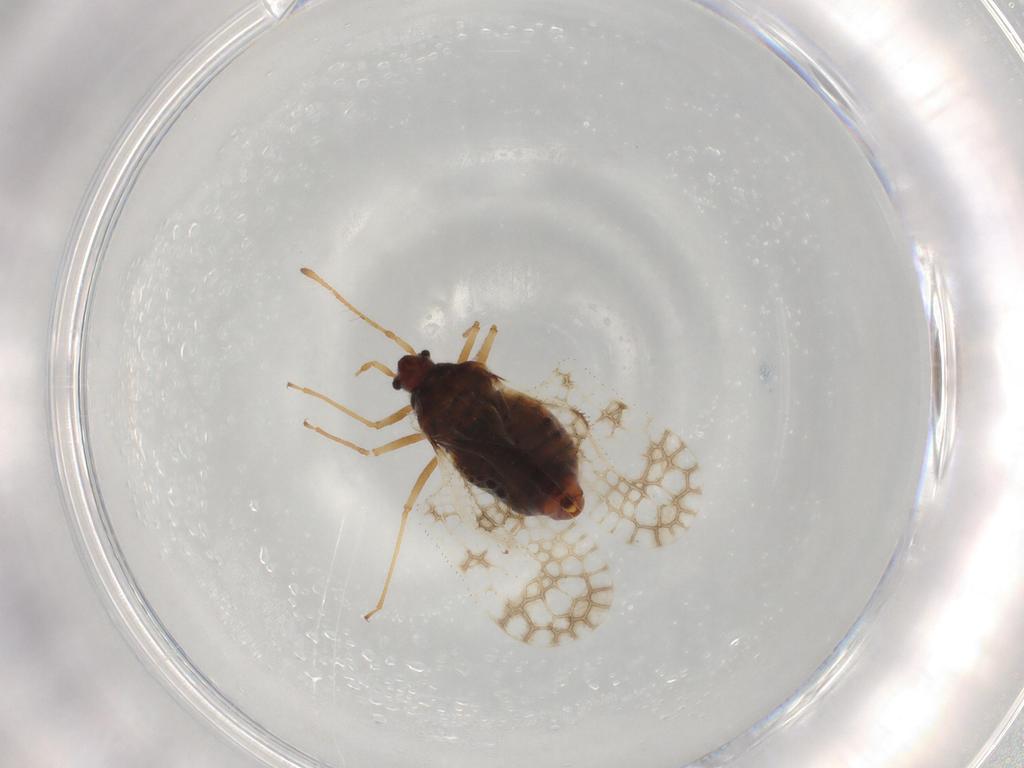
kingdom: Animalia
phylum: Arthropoda
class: Insecta
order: Hemiptera
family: Tingidae
